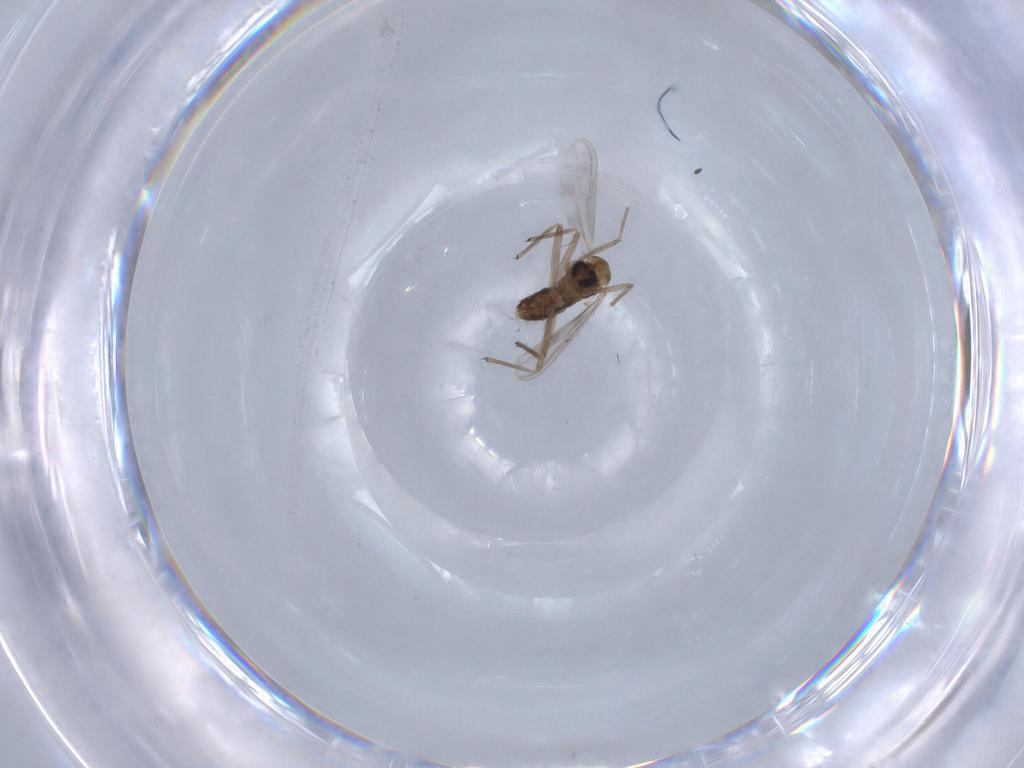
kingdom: Animalia
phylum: Arthropoda
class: Insecta
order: Diptera
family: Chironomidae
